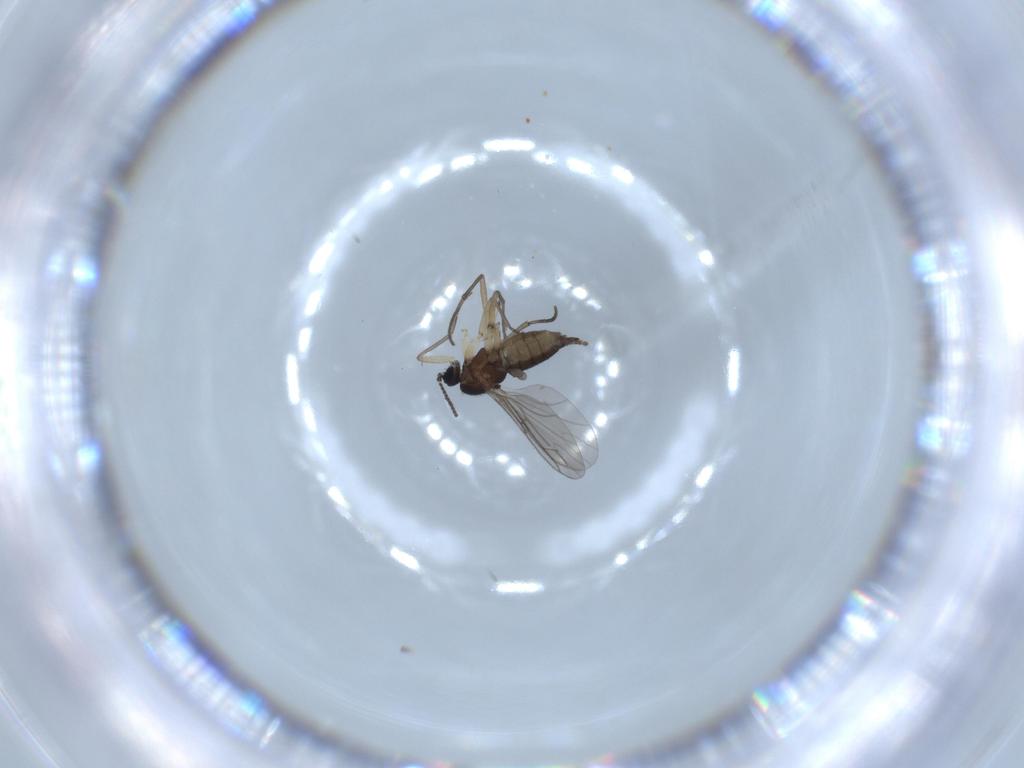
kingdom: Animalia
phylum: Arthropoda
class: Insecta
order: Diptera
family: Cecidomyiidae
